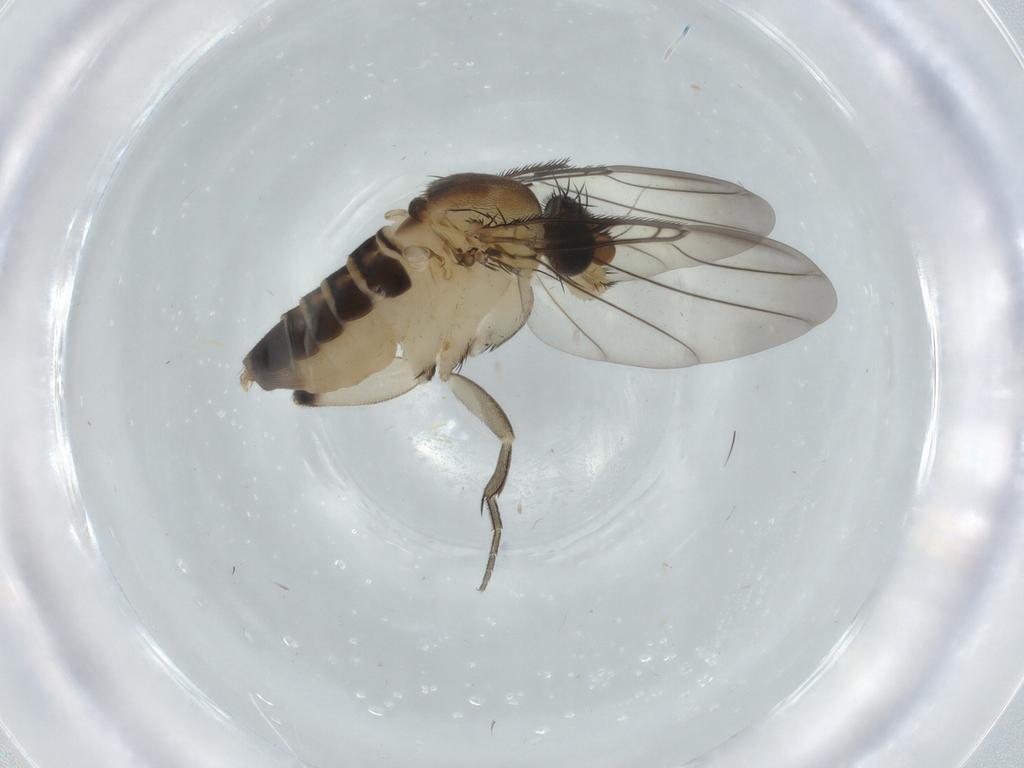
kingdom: Animalia
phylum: Arthropoda
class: Insecta
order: Diptera
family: Phoridae
